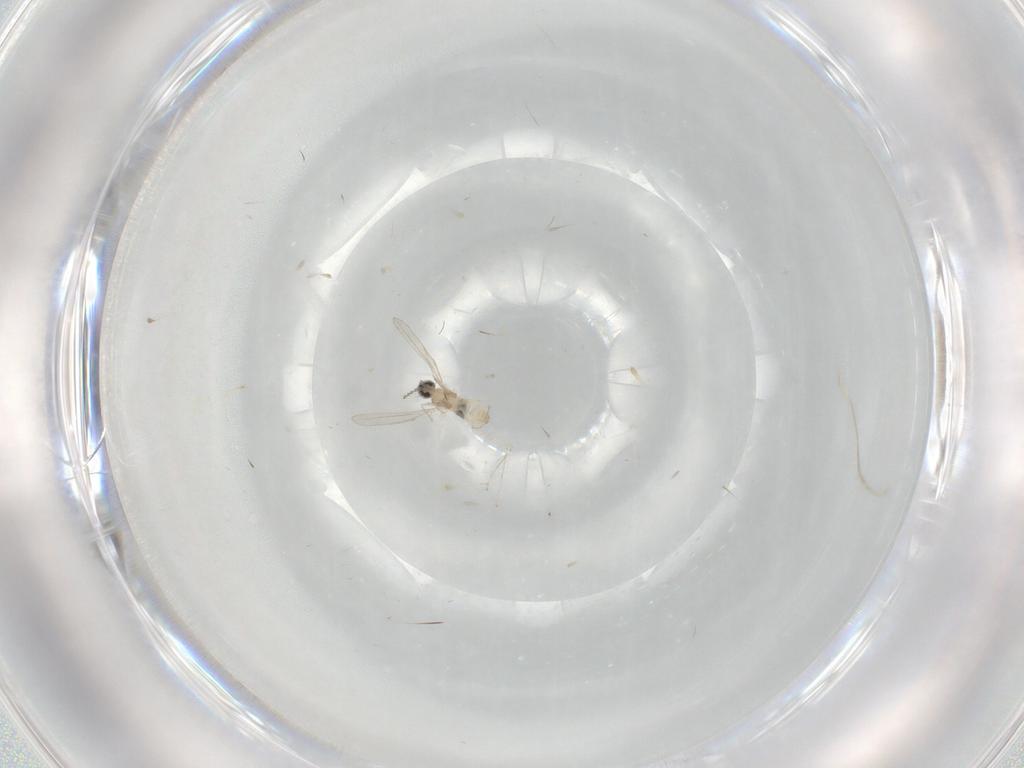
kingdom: Animalia
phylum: Arthropoda
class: Insecta
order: Diptera
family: Cecidomyiidae
